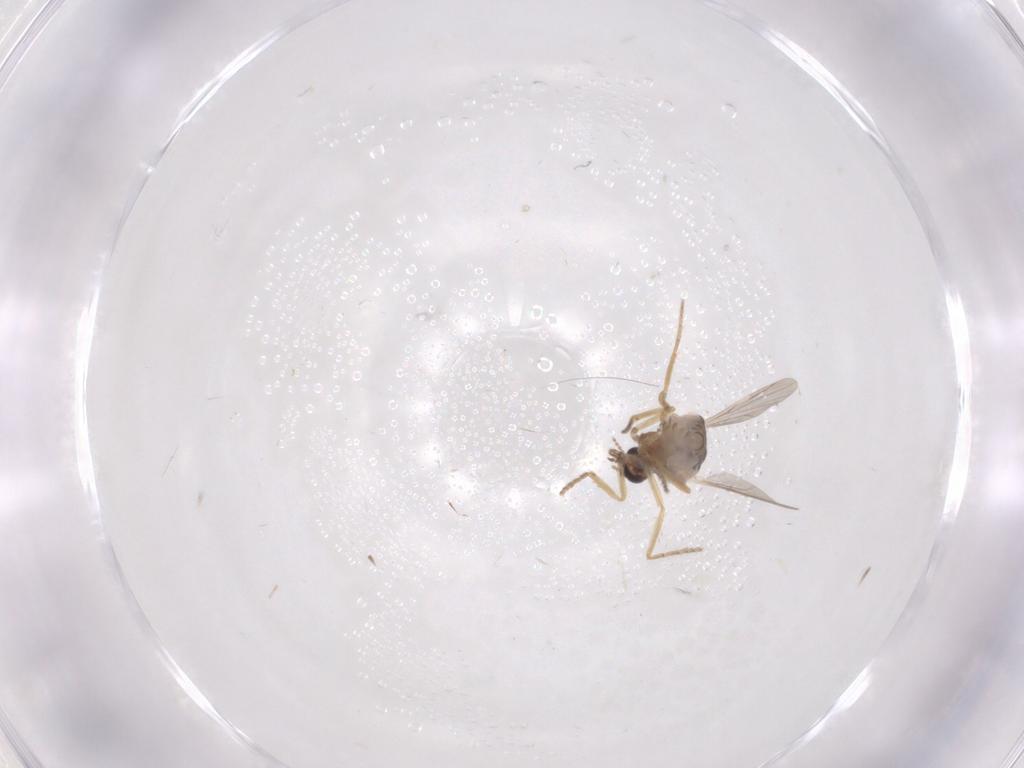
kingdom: Animalia
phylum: Arthropoda
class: Insecta
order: Diptera
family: Ceratopogonidae
